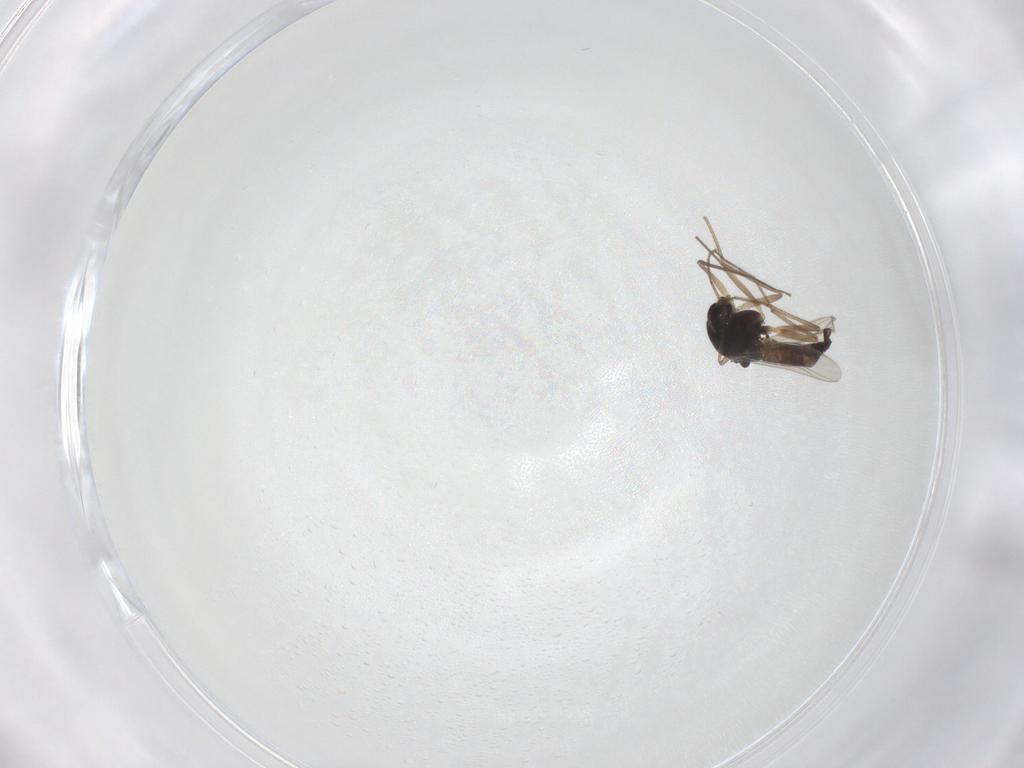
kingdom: Animalia
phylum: Arthropoda
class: Insecta
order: Diptera
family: Chironomidae
